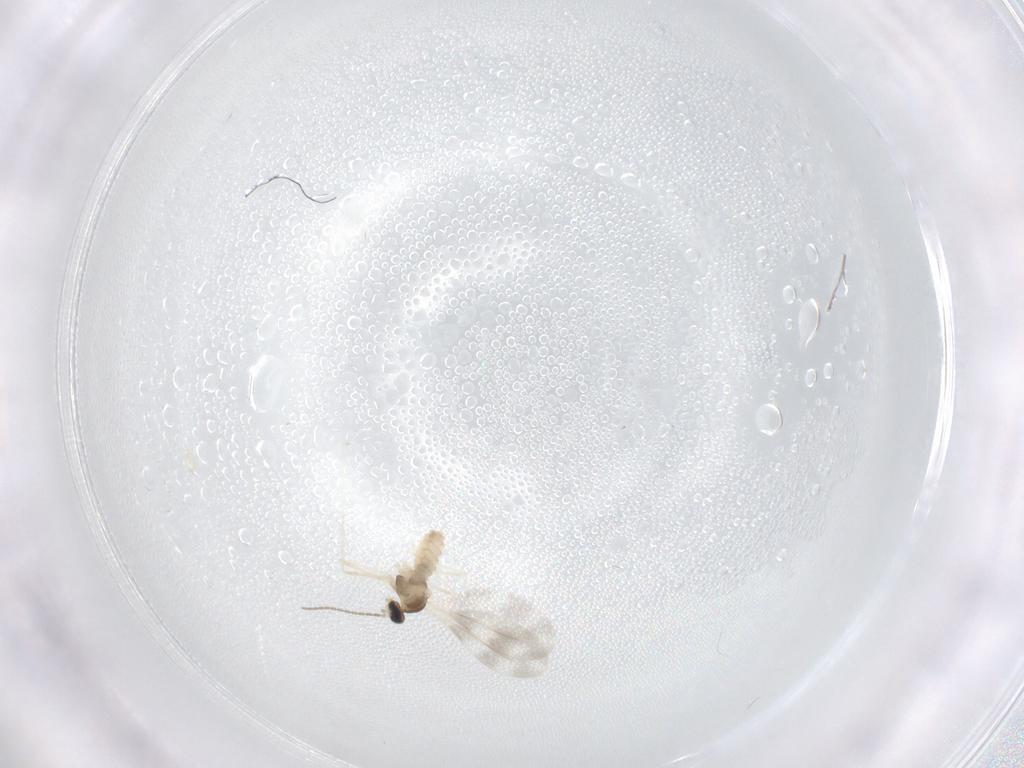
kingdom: Animalia
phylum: Arthropoda
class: Insecta
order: Diptera
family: Cecidomyiidae
